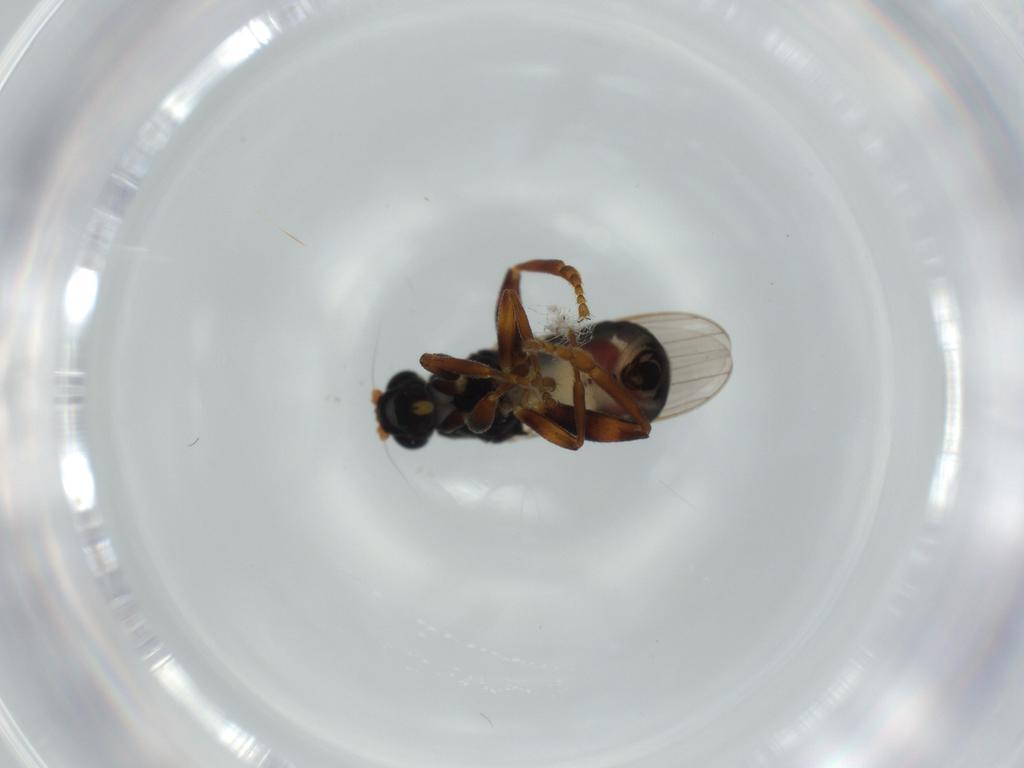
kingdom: Animalia
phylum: Arthropoda
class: Insecta
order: Diptera
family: Sphaeroceridae
